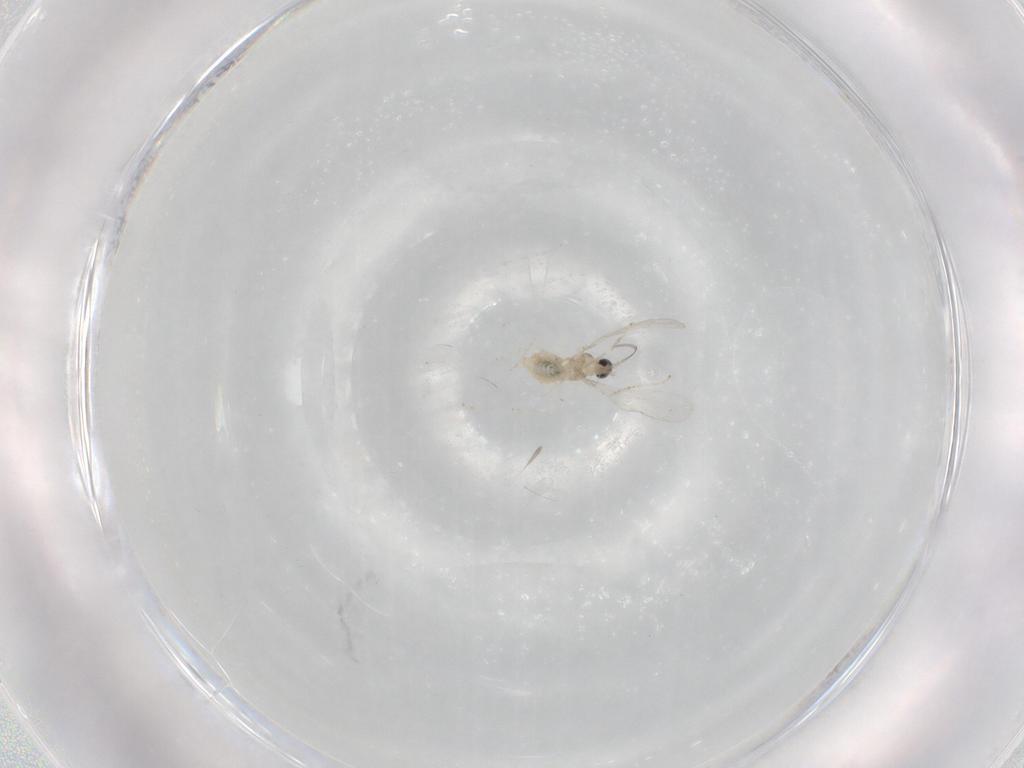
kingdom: Animalia
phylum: Arthropoda
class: Insecta
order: Diptera
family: Cecidomyiidae
